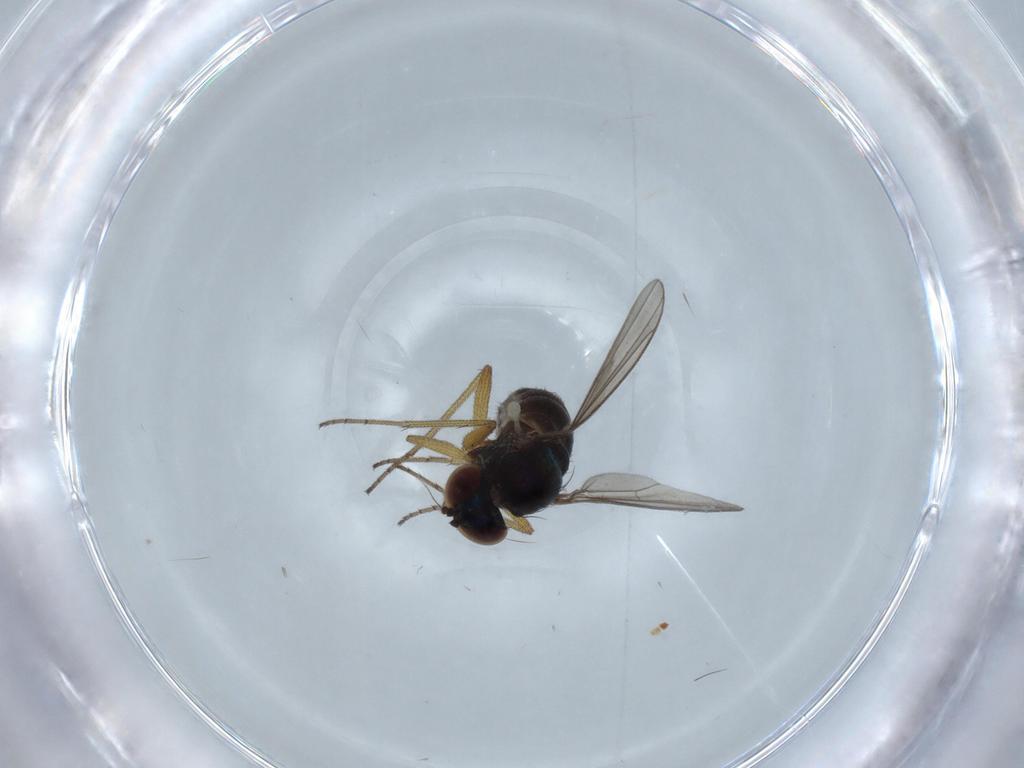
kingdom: Animalia
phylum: Arthropoda
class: Insecta
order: Diptera
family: Dolichopodidae
